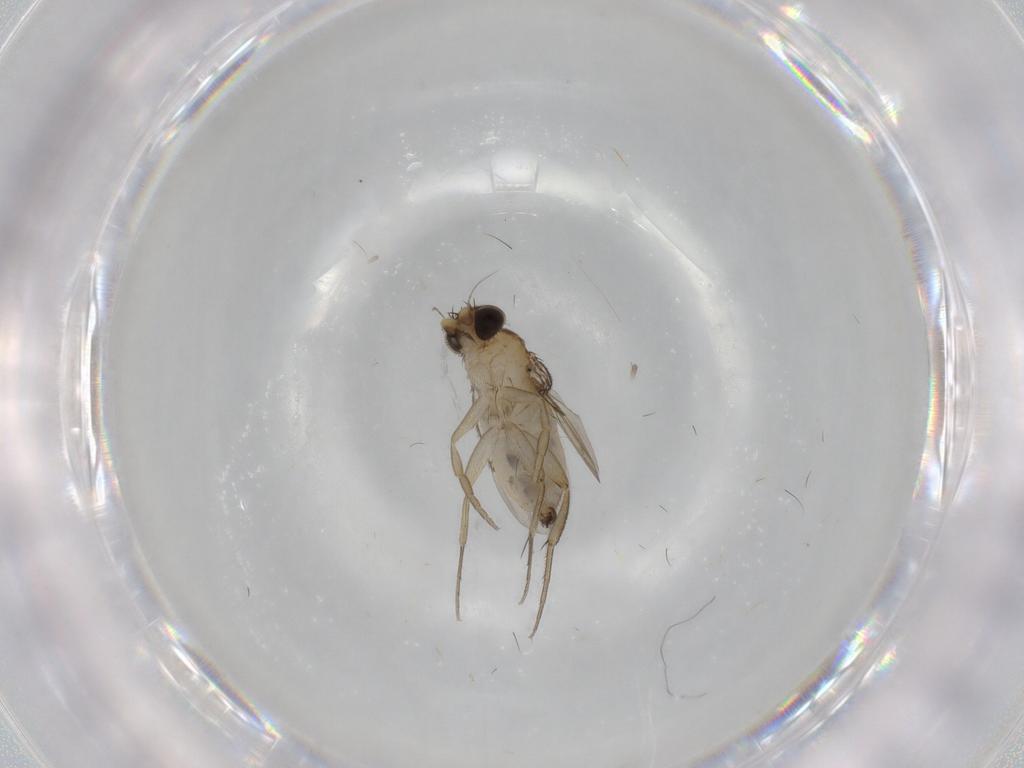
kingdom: Animalia
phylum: Arthropoda
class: Insecta
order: Diptera
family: Phoridae
